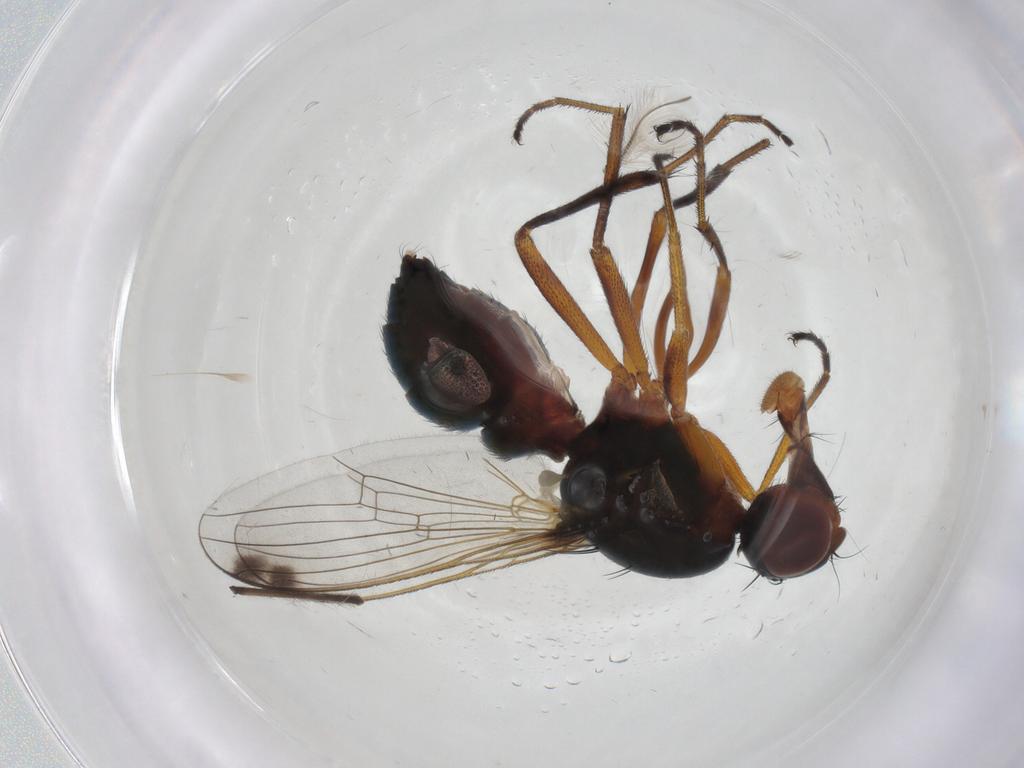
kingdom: Animalia
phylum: Arthropoda
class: Insecta
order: Diptera
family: Sepsidae
